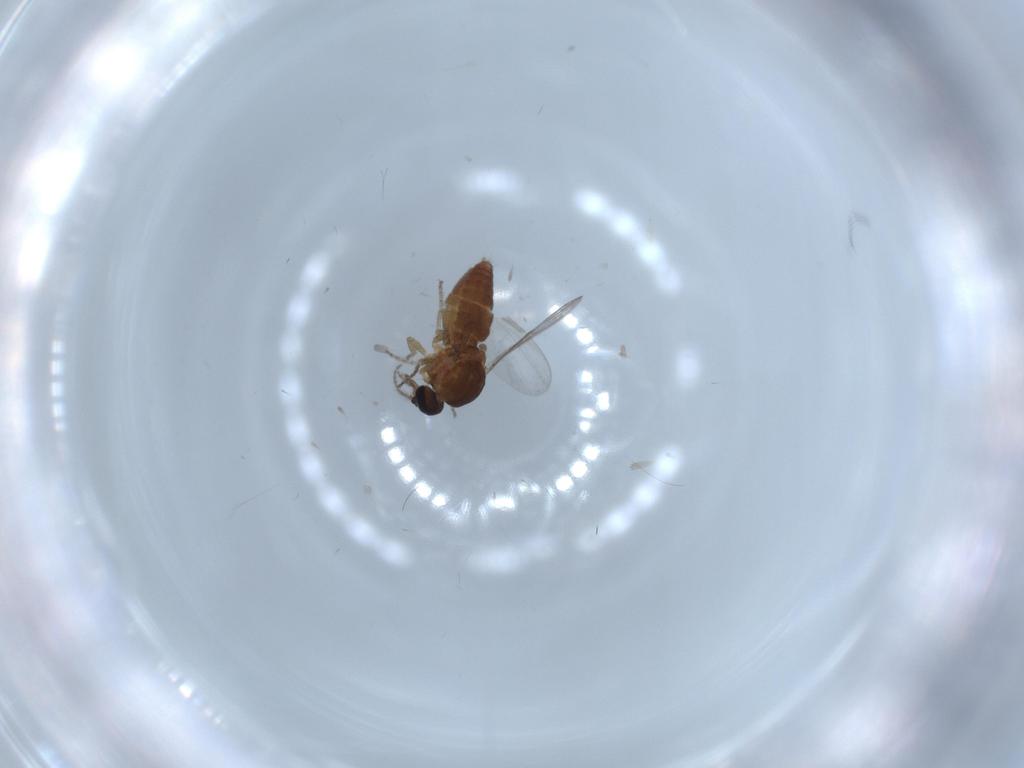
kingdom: Animalia
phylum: Arthropoda
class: Insecta
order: Diptera
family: Ceratopogonidae
